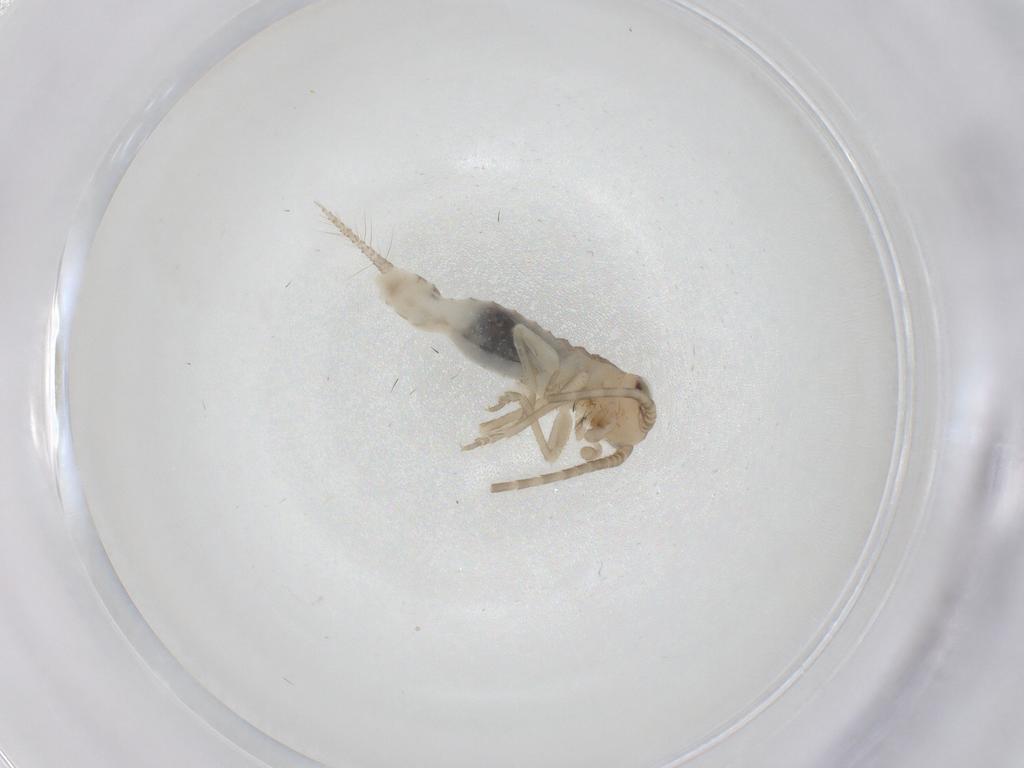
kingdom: Animalia
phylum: Arthropoda
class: Insecta
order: Orthoptera
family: Gryllidae
